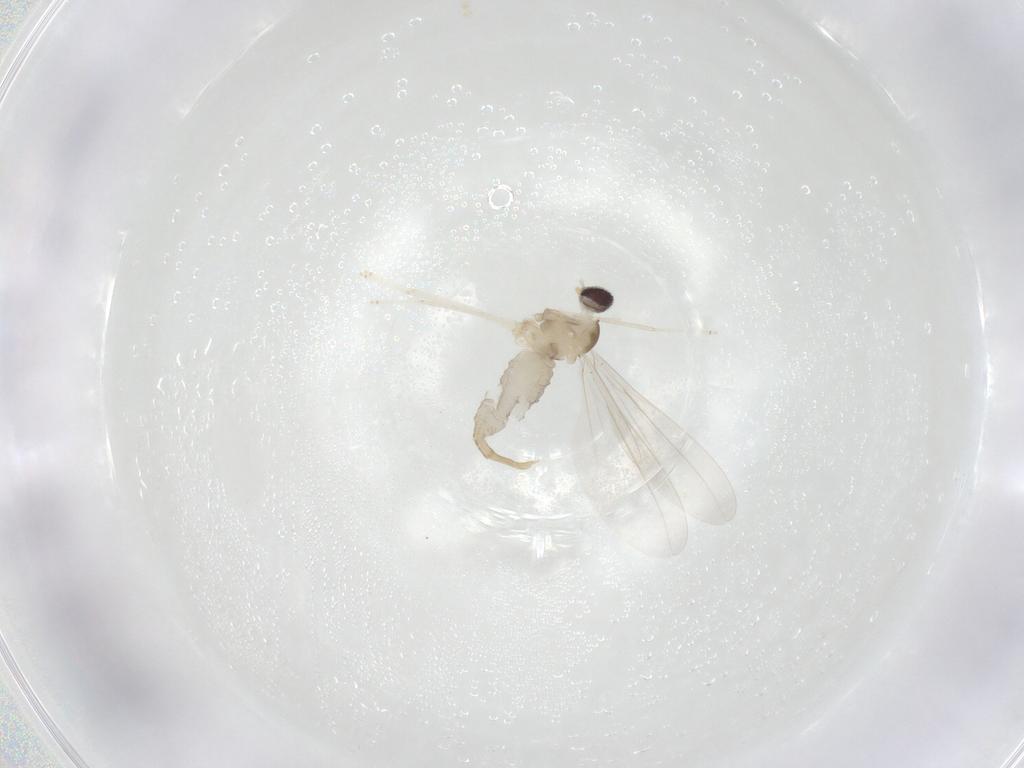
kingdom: Animalia
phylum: Arthropoda
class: Insecta
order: Diptera
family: Cecidomyiidae
